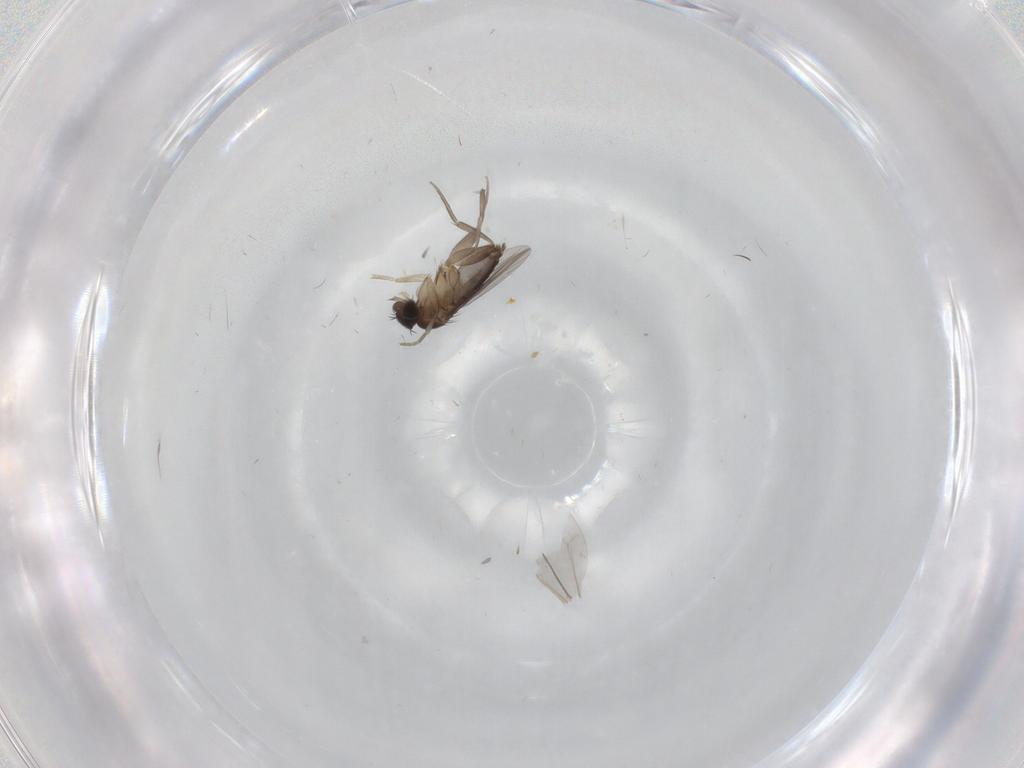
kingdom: Animalia
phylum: Arthropoda
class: Insecta
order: Diptera
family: Phoridae
